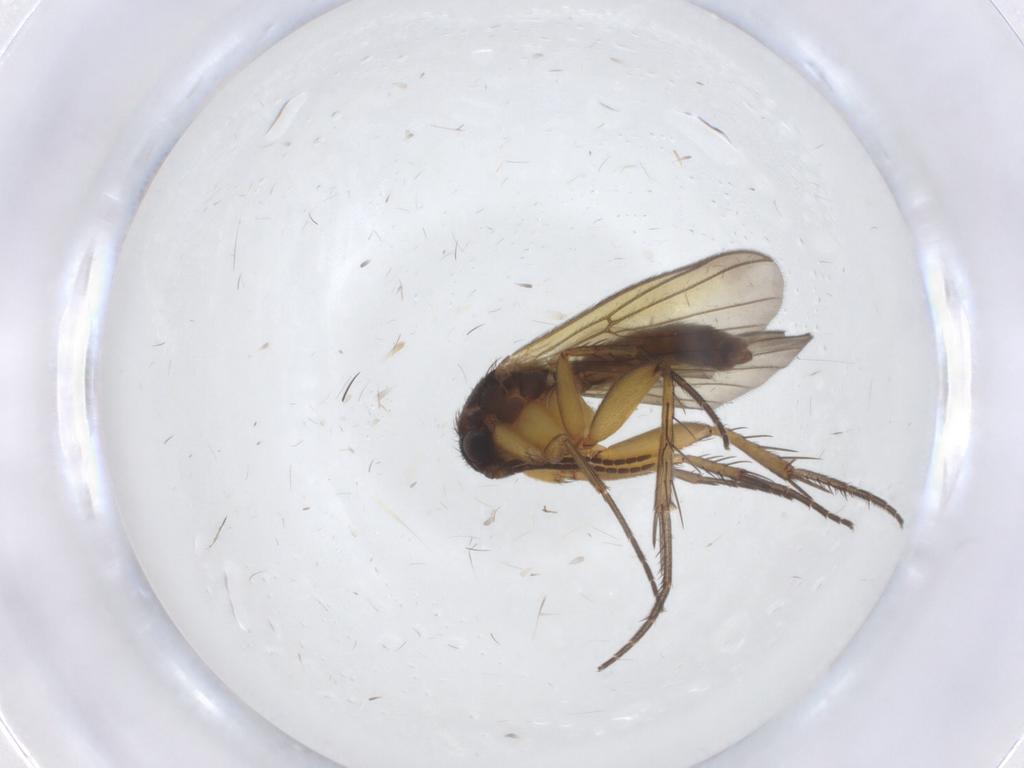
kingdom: Animalia
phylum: Arthropoda
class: Insecta
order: Diptera
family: Mycetophilidae
